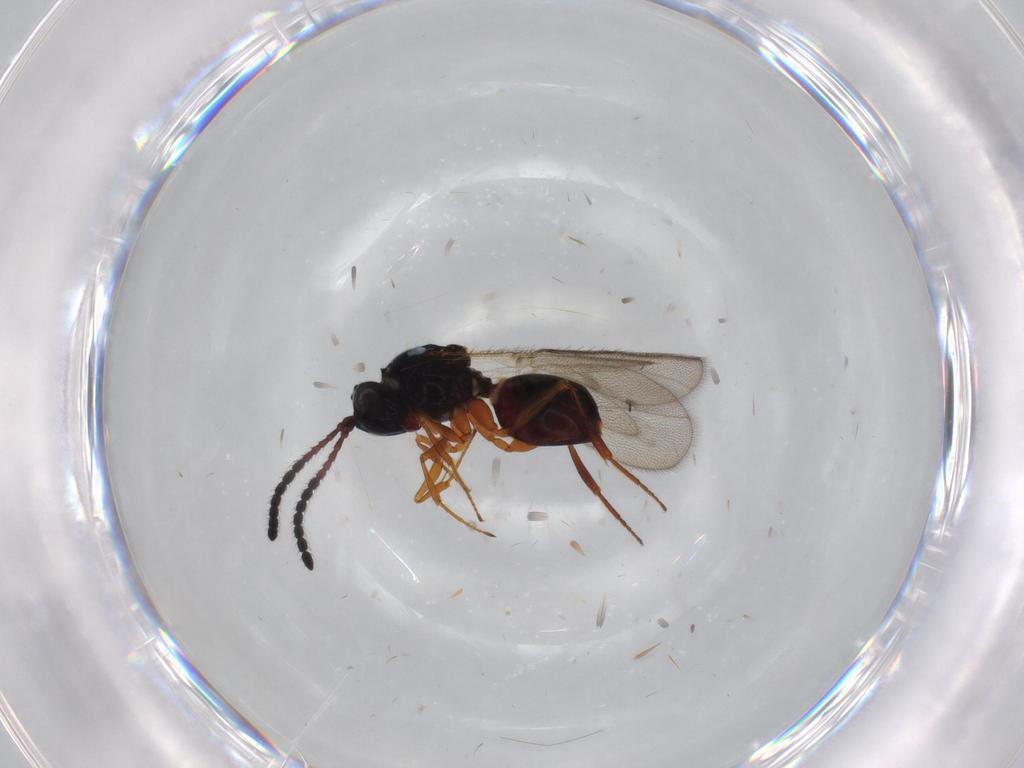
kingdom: Animalia
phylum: Arthropoda
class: Insecta
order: Hymenoptera
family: Figitidae
